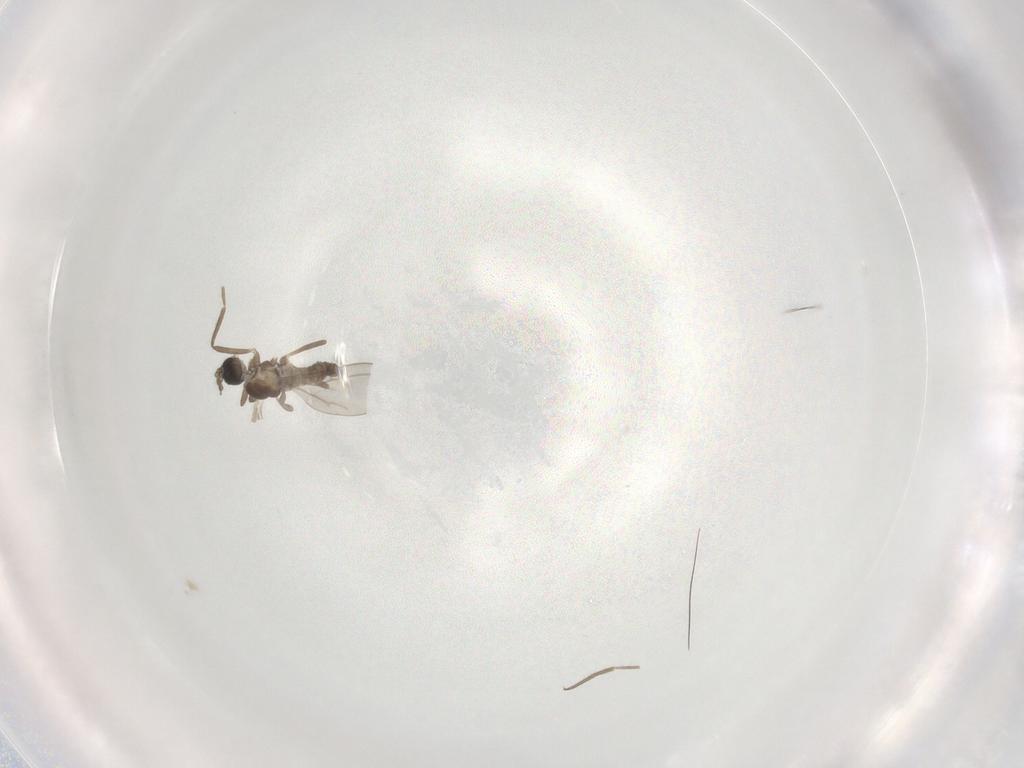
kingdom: Animalia
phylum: Arthropoda
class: Insecta
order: Diptera
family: Cecidomyiidae
